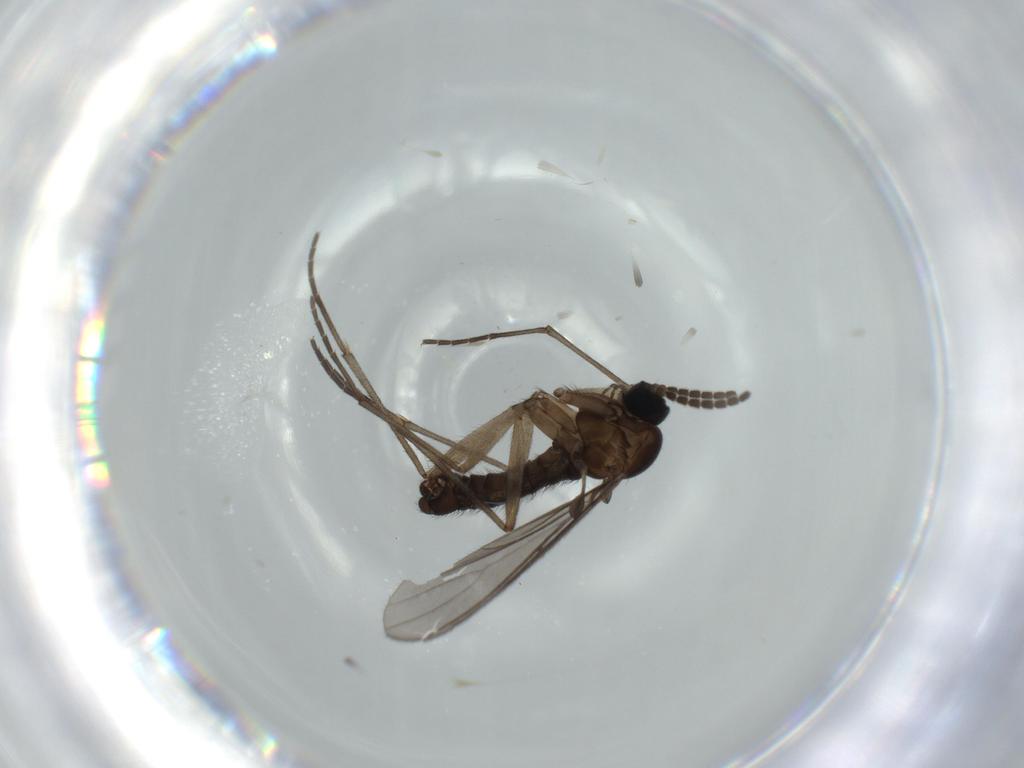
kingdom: Animalia
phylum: Arthropoda
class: Insecta
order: Diptera
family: Sciaridae
